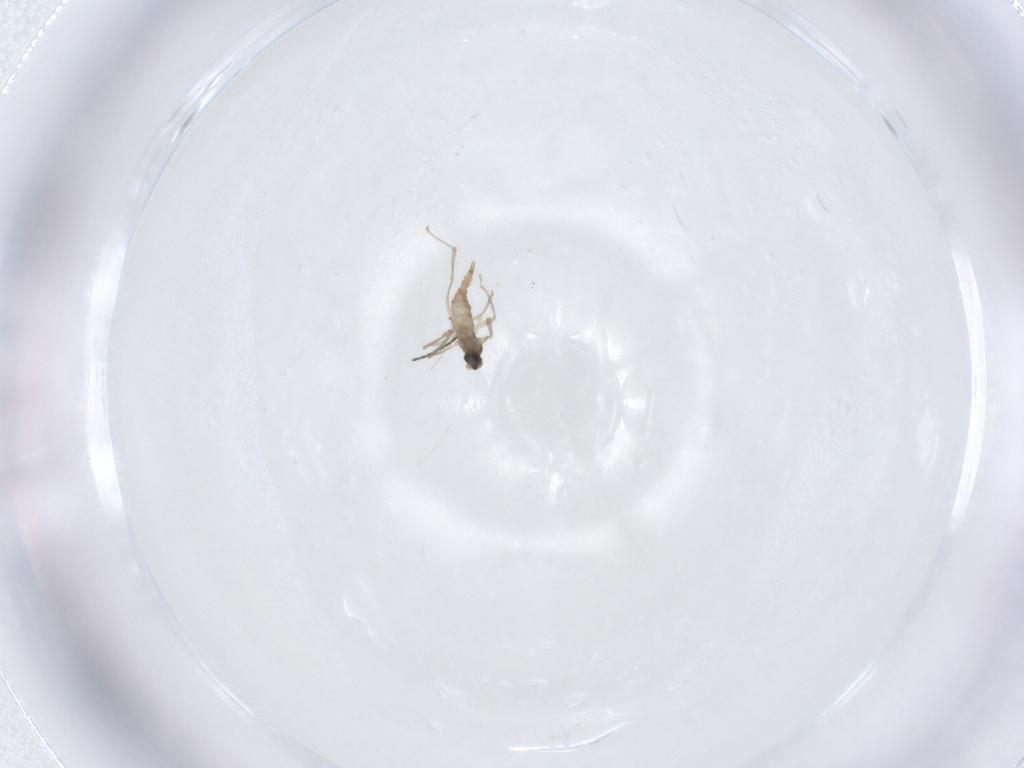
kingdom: Animalia
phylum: Arthropoda
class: Insecta
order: Diptera
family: Cecidomyiidae
